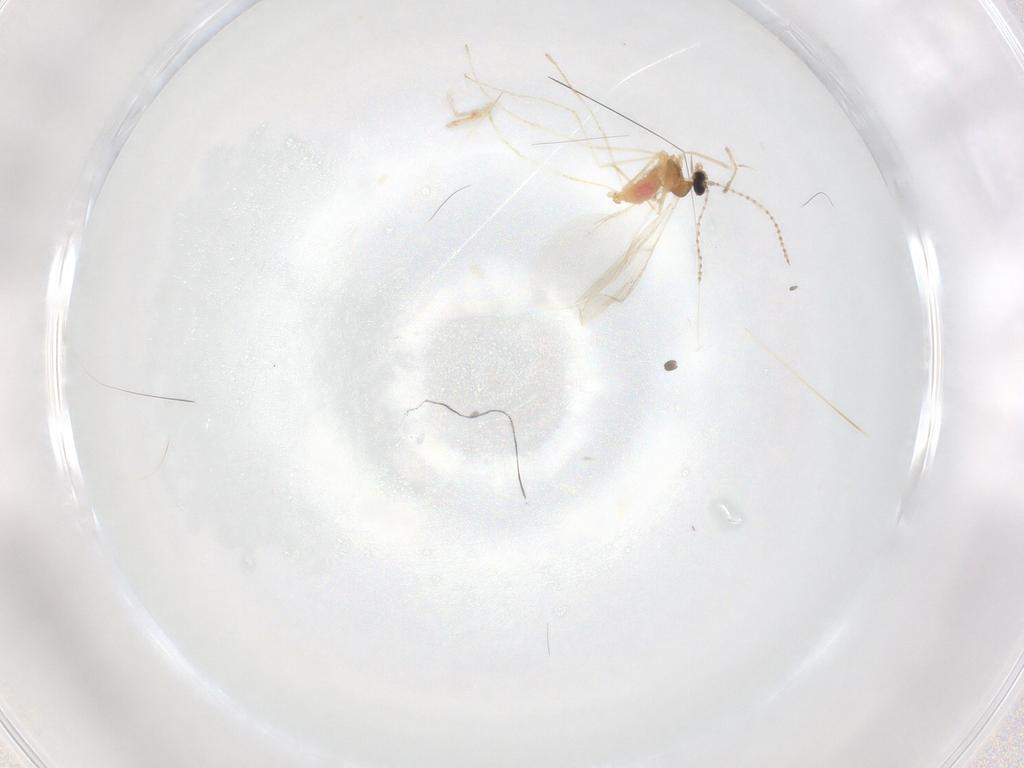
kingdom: Animalia
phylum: Arthropoda
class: Insecta
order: Diptera
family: Cecidomyiidae
